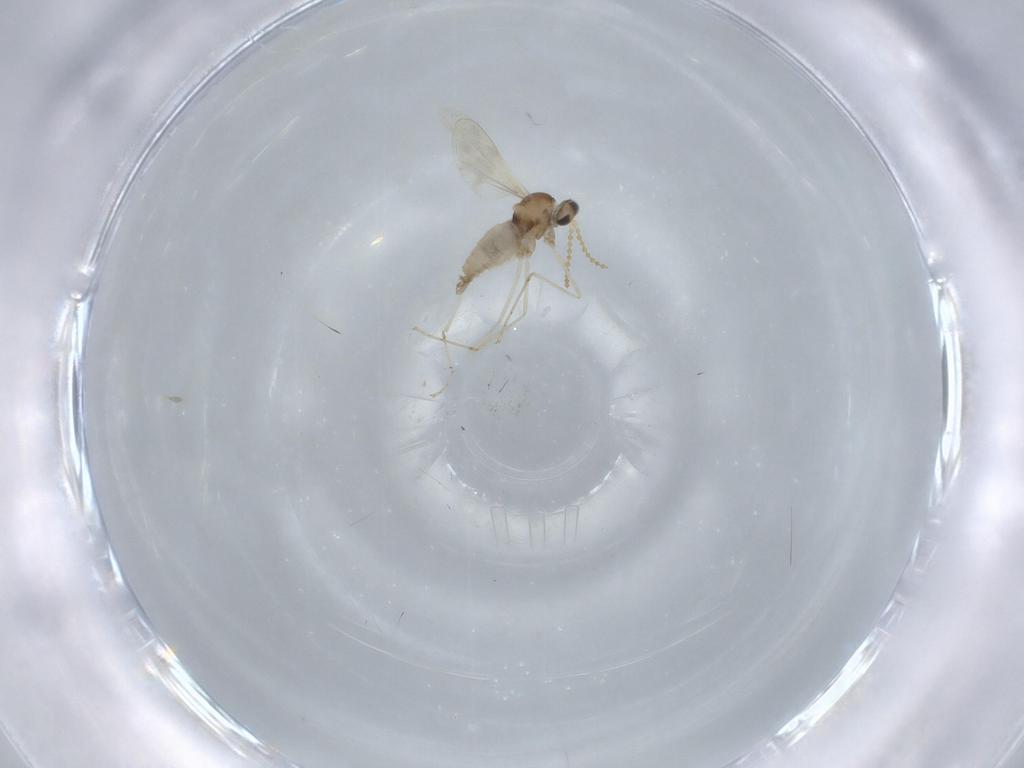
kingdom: Animalia
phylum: Arthropoda
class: Insecta
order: Diptera
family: Cecidomyiidae
